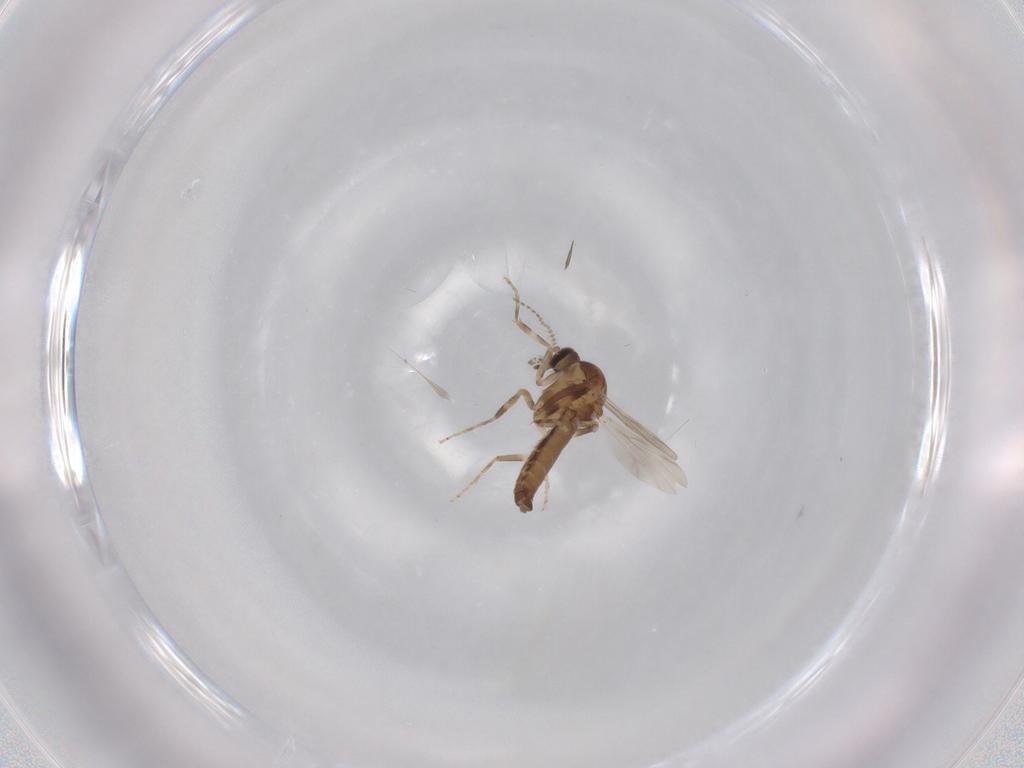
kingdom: Animalia
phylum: Arthropoda
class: Insecta
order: Diptera
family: Ceratopogonidae
